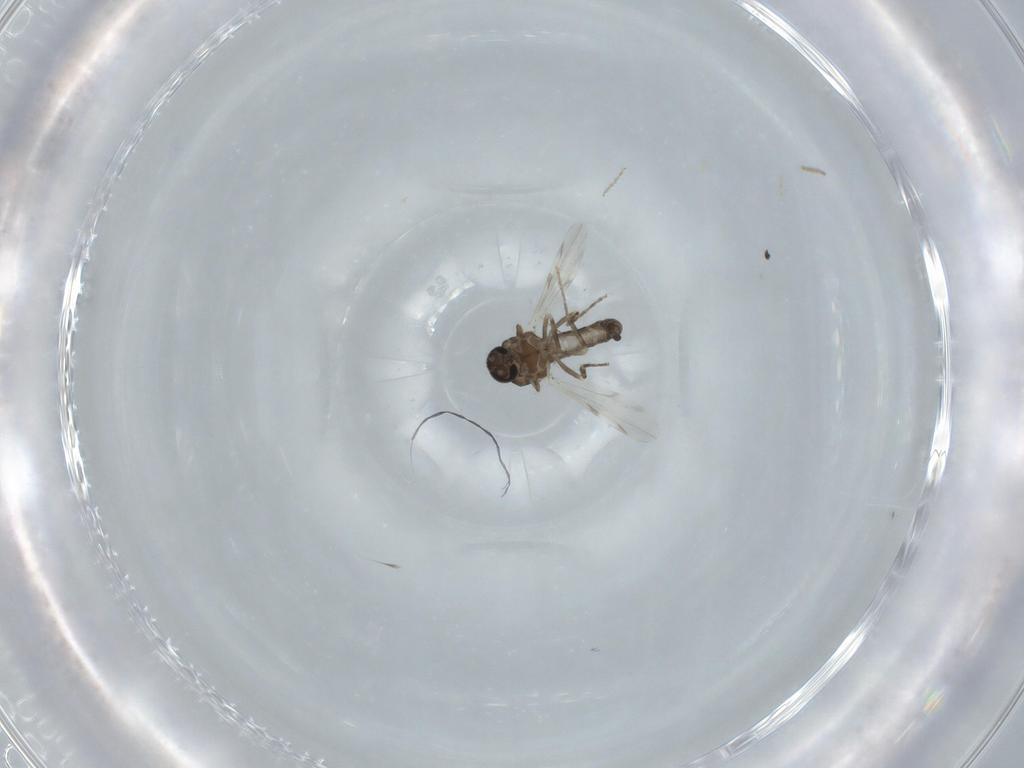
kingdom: Animalia
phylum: Arthropoda
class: Insecta
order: Diptera
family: Ceratopogonidae
